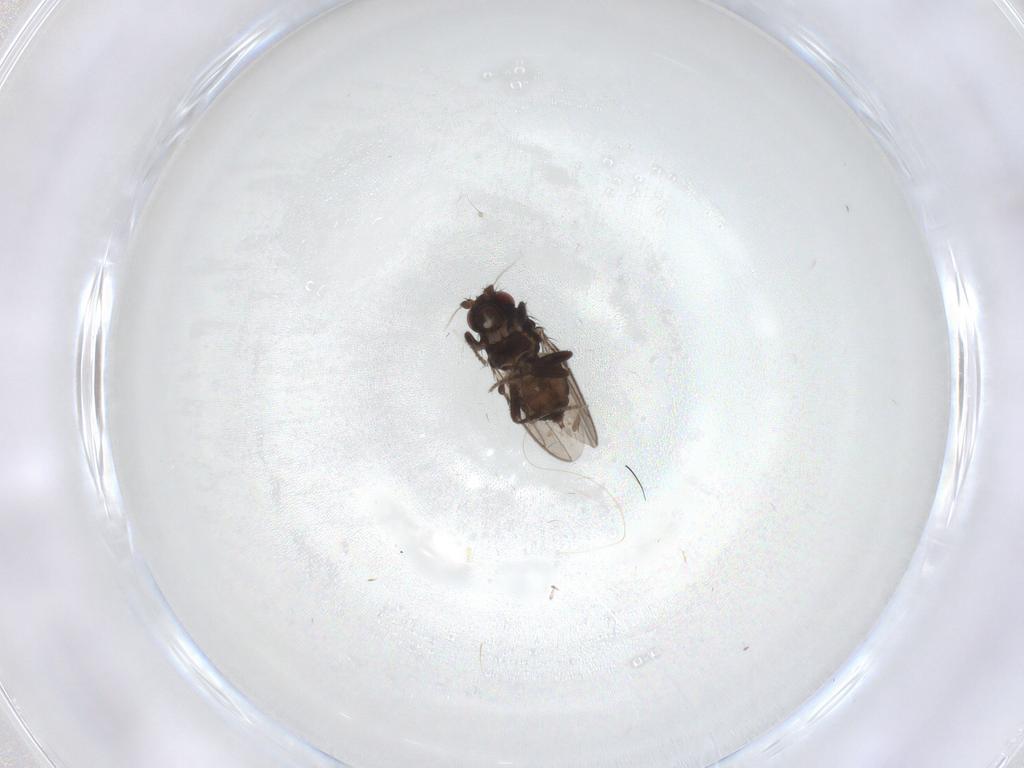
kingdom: Animalia
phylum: Arthropoda
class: Insecta
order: Diptera
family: Sphaeroceridae
